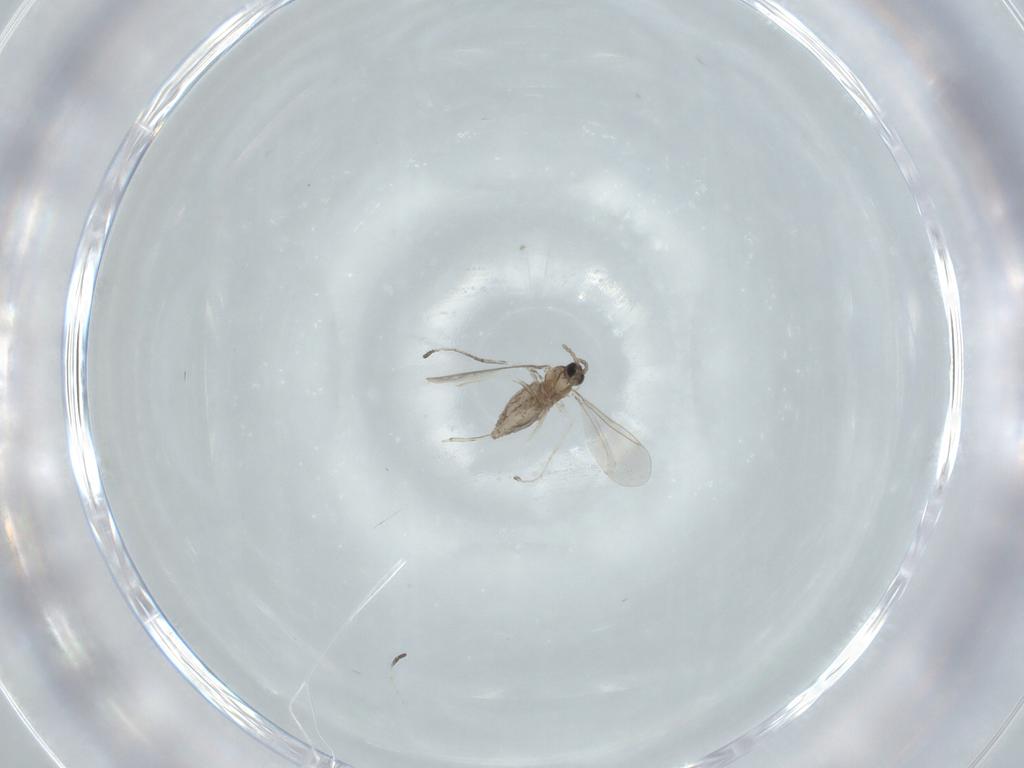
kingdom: Animalia
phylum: Arthropoda
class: Insecta
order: Diptera
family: Cecidomyiidae
